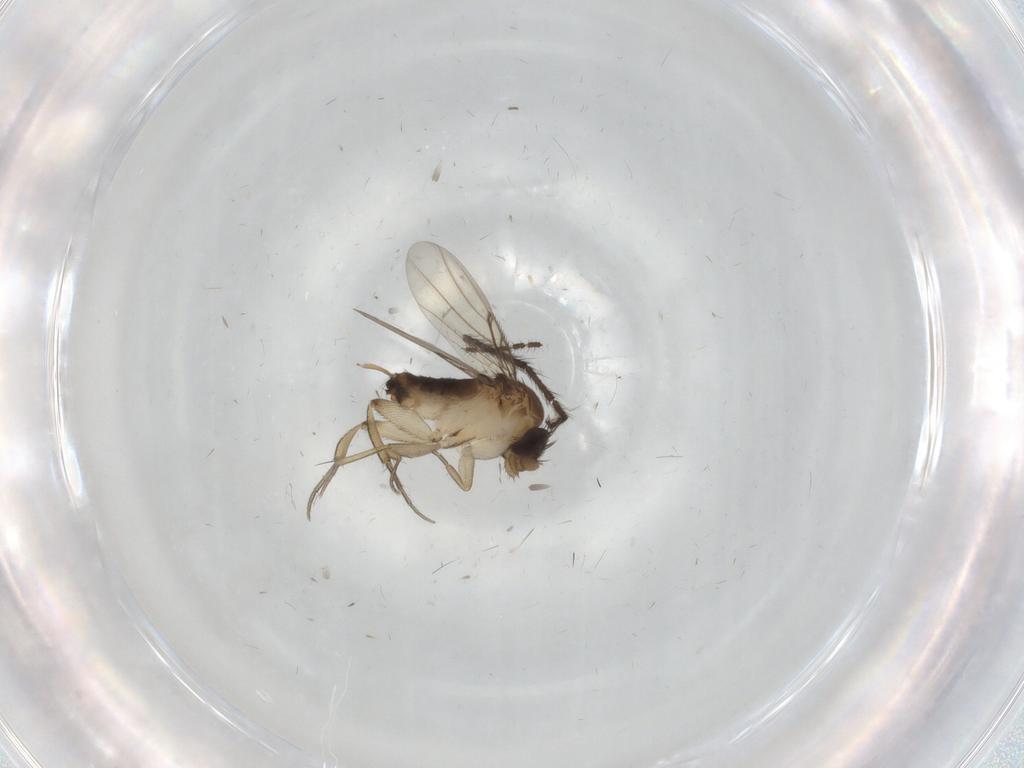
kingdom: Animalia
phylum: Arthropoda
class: Insecta
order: Diptera
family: Limoniidae
